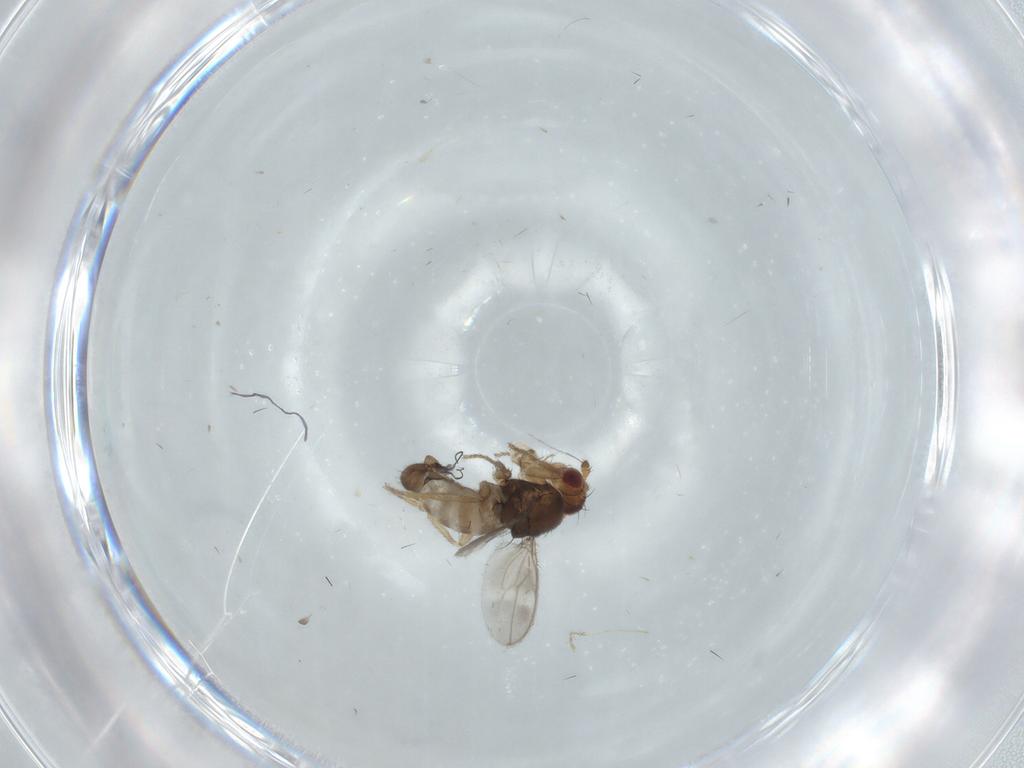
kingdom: Animalia
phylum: Arthropoda
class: Insecta
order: Diptera
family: Sphaeroceridae
